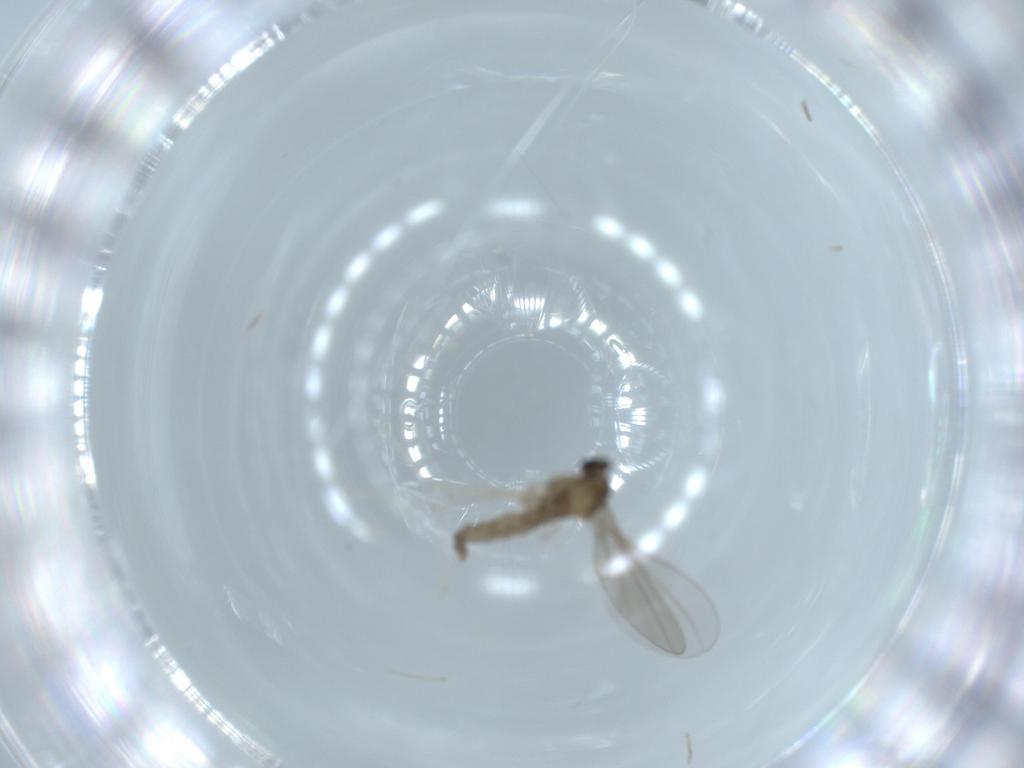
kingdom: Animalia
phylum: Arthropoda
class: Insecta
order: Diptera
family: Cecidomyiidae
